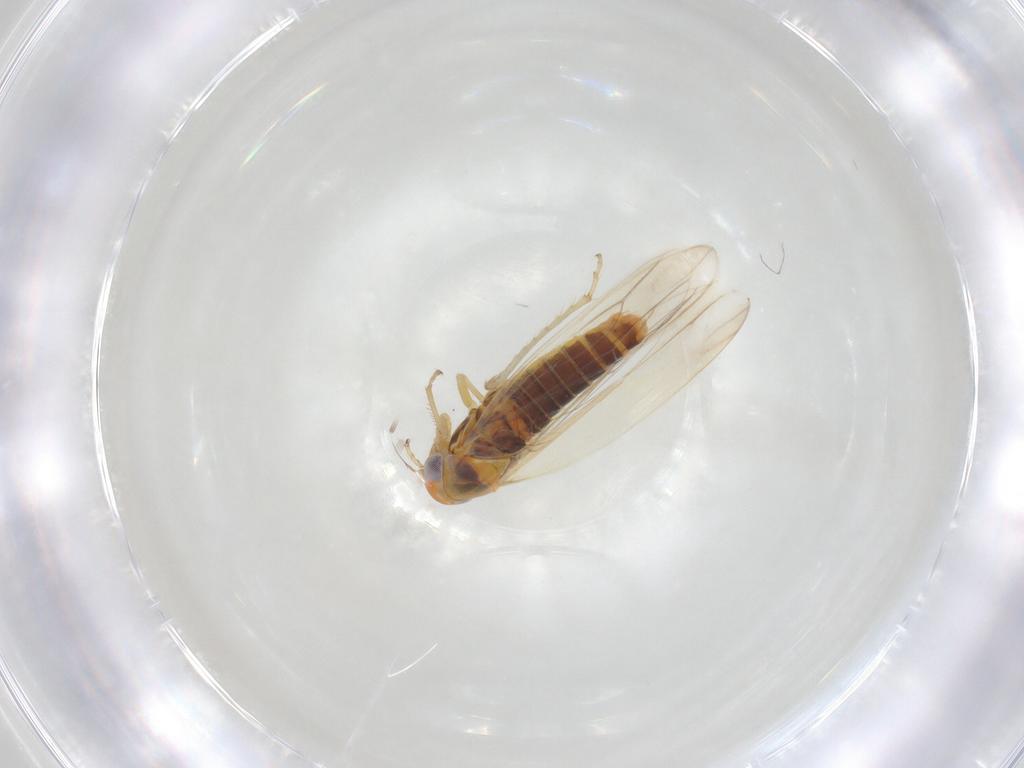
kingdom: Animalia
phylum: Arthropoda
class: Insecta
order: Hemiptera
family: Cicadellidae
